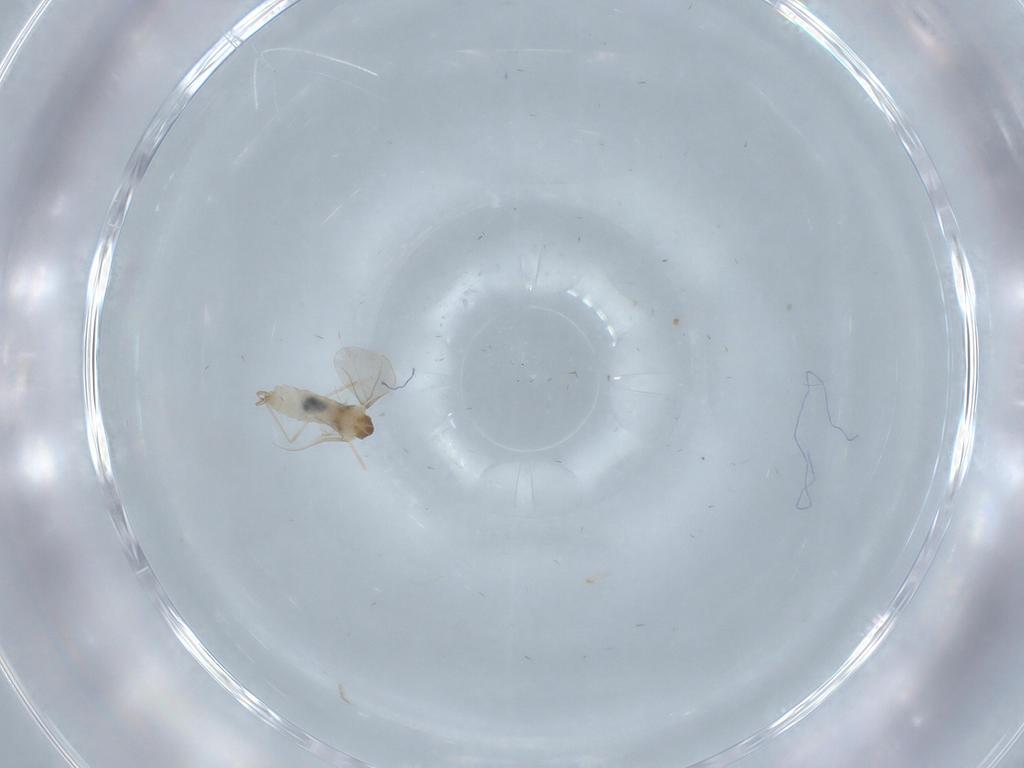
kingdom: Animalia
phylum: Arthropoda
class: Insecta
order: Diptera
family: Cecidomyiidae
